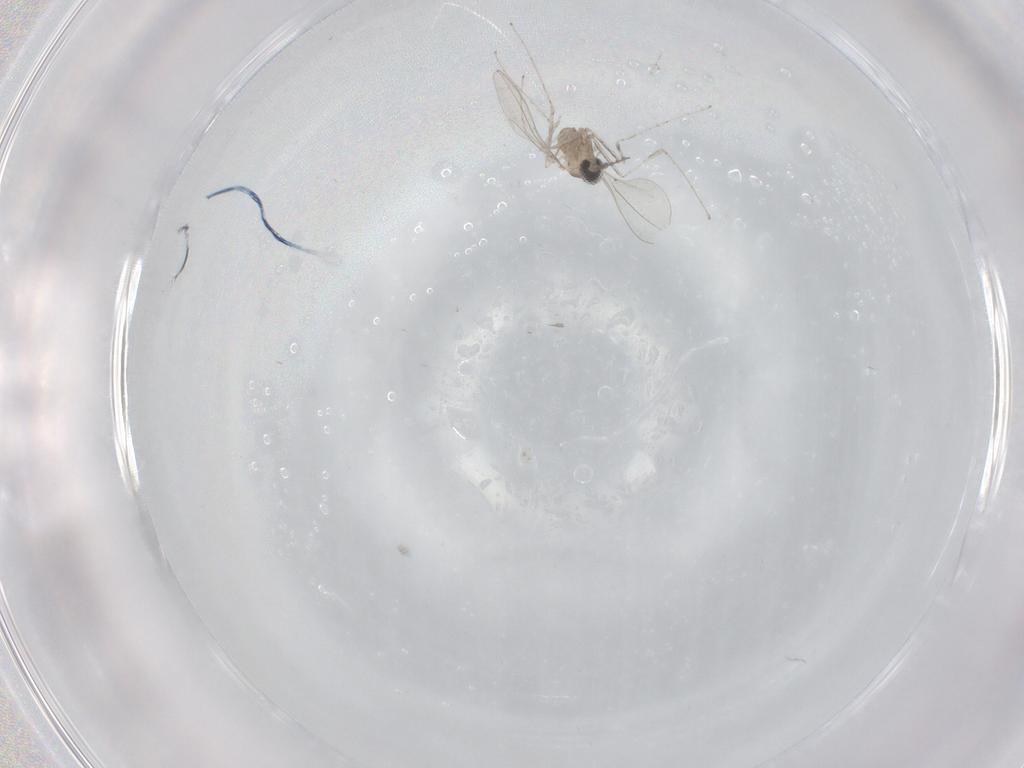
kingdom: Animalia
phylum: Arthropoda
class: Insecta
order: Diptera
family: Cecidomyiidae
